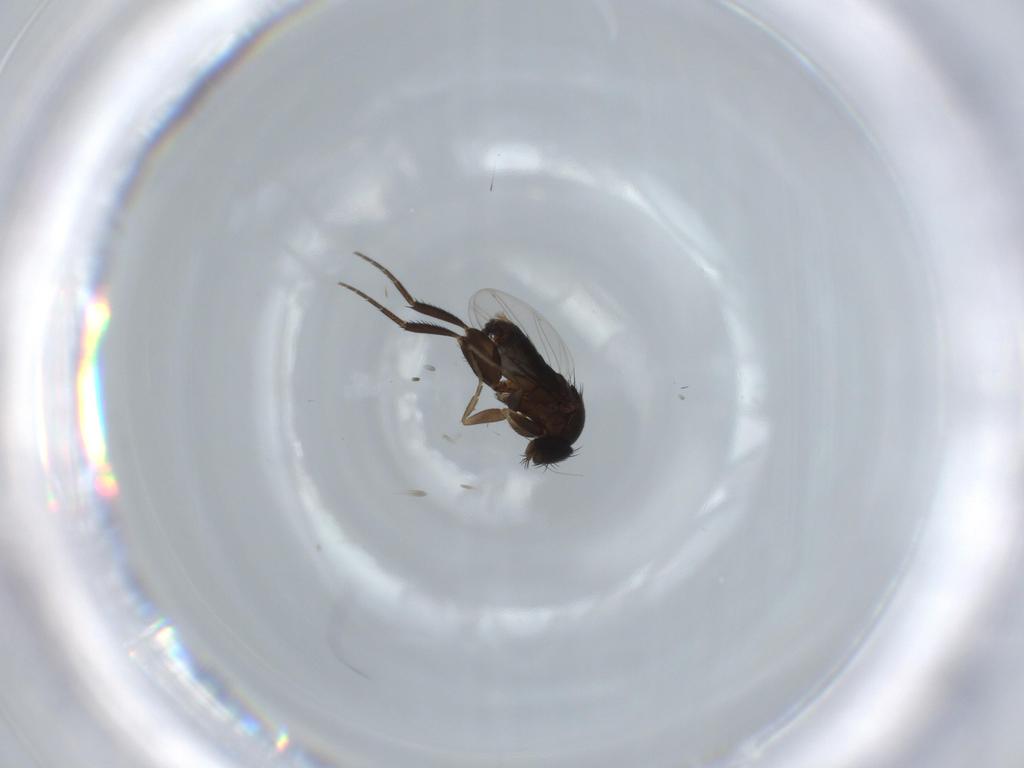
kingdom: Animalia
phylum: Arthropoda
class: Insecta
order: Diptera
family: Phoridae
